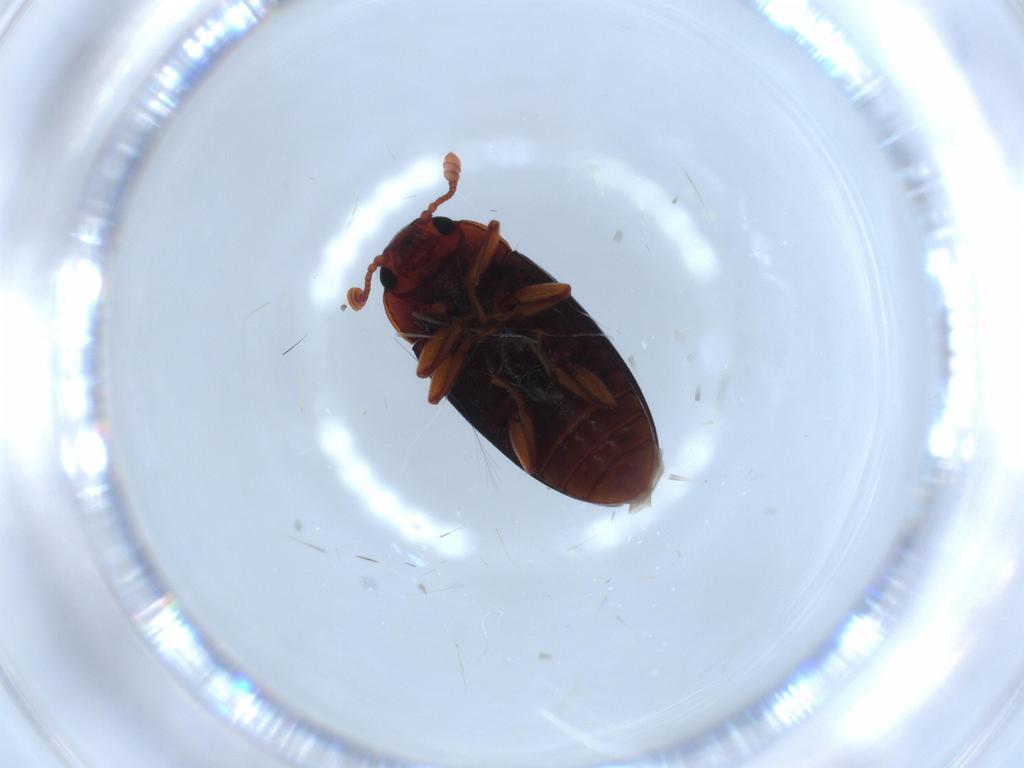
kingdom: Animalia
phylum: Arthropoda
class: Insecta
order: Coleoptera
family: Erotylidae
